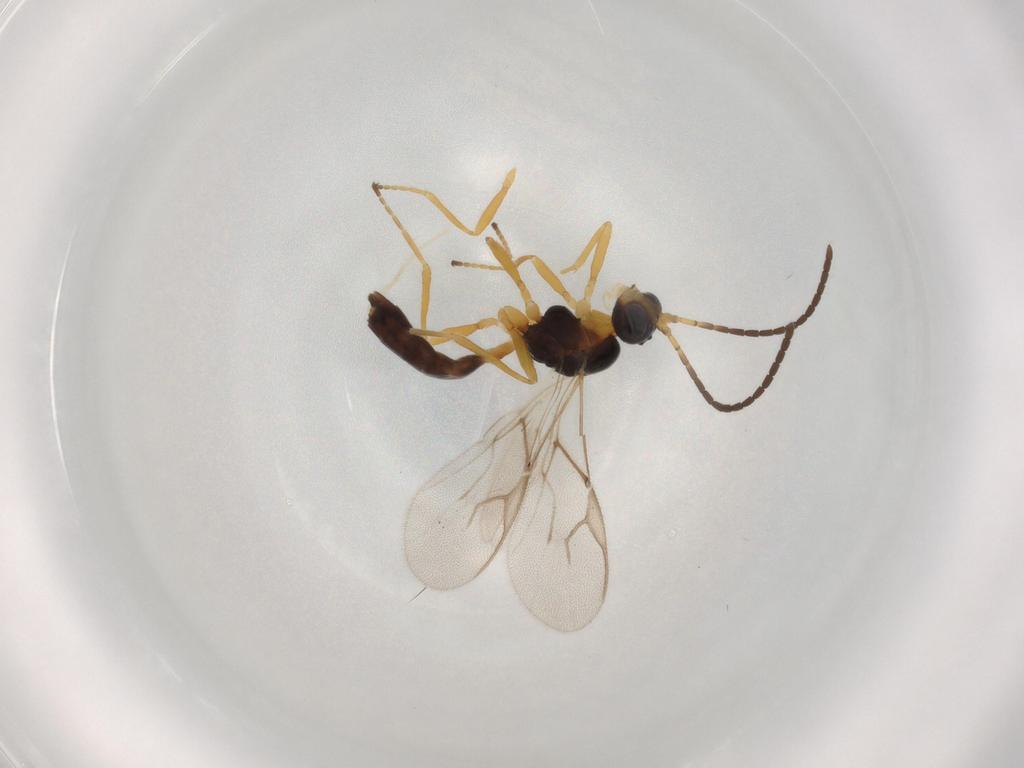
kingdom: Animalia
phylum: Arthropoda
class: Insecta
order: Hymenoptera
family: Braconidae
